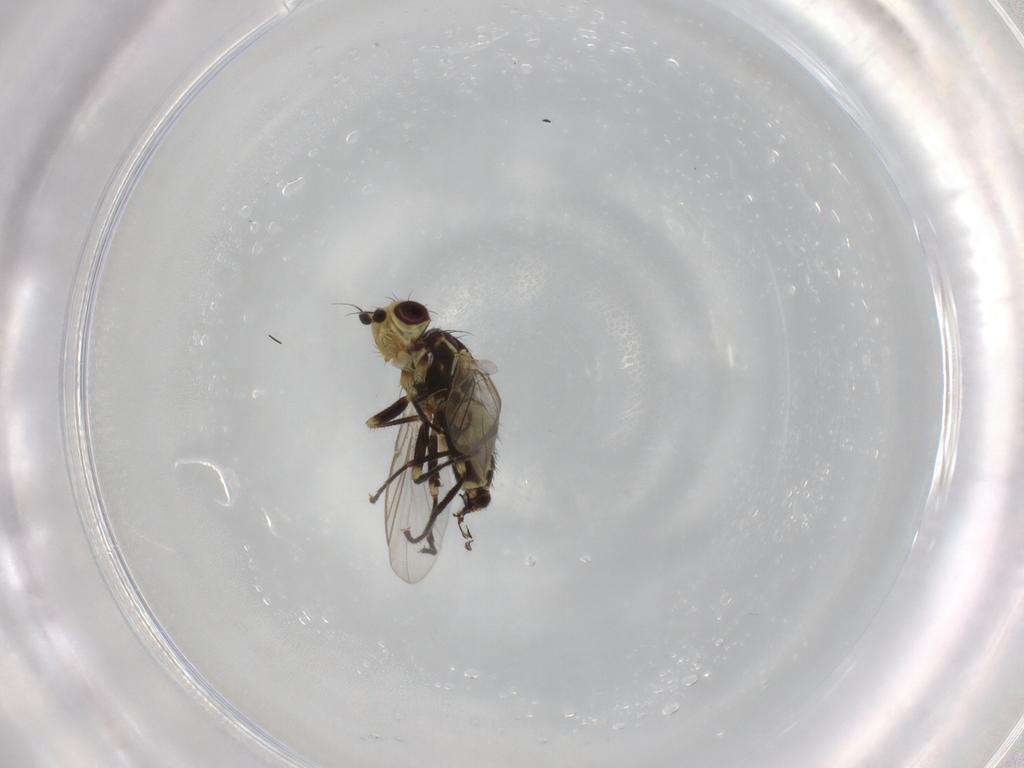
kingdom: Animalia
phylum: Arthropoda
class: Insecta
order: Diptera
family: Agromyzidae
